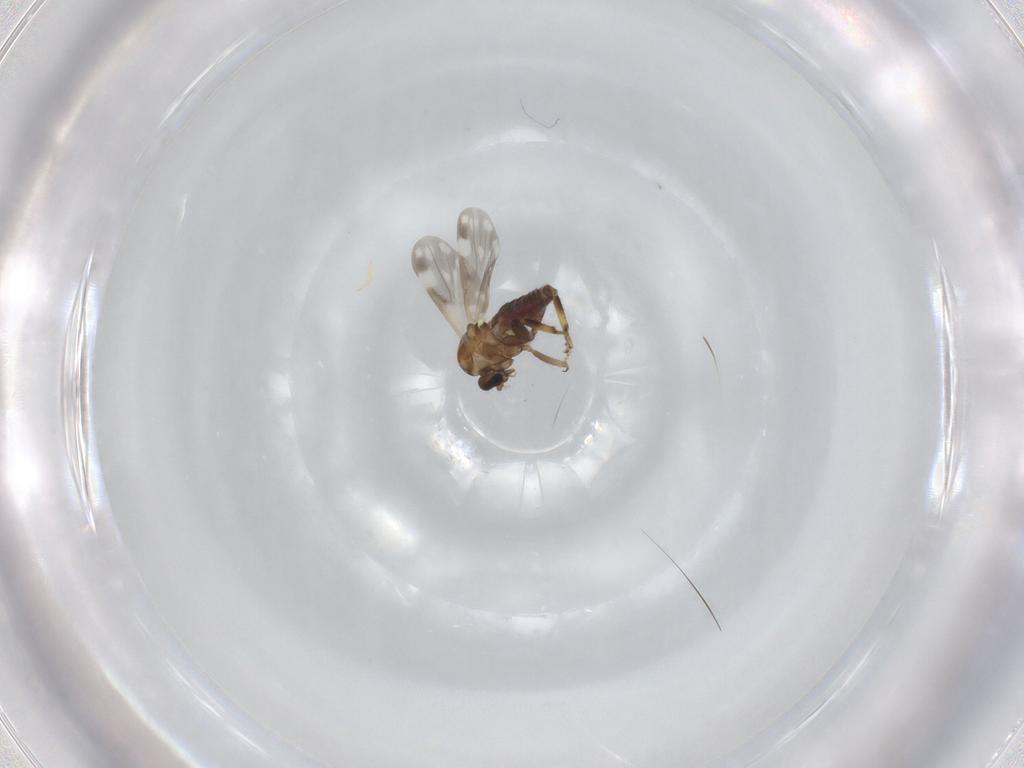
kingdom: Animalia
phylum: Arthropoda
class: Insecta
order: Diptera
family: Ceratopogonidae
